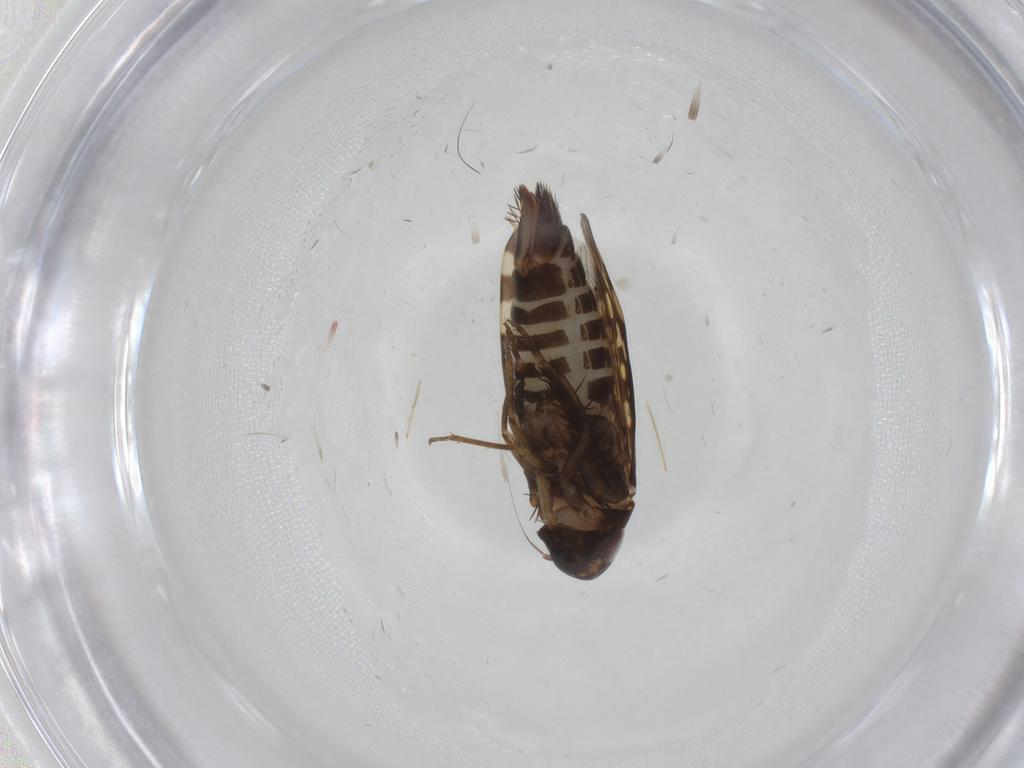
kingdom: Animalia
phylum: Arthropoda
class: Insecta
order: Hemiptera
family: Cicadellidae
